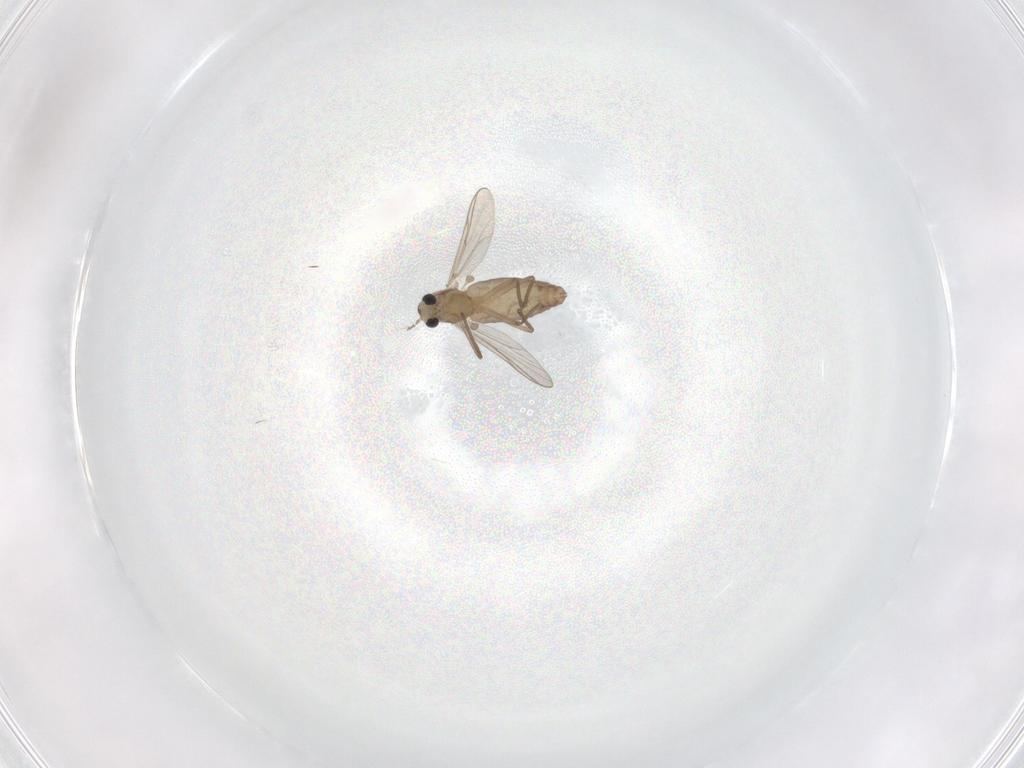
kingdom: Animalia
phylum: Arthropoda
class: Insecta
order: Diptera
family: Chironomidae
